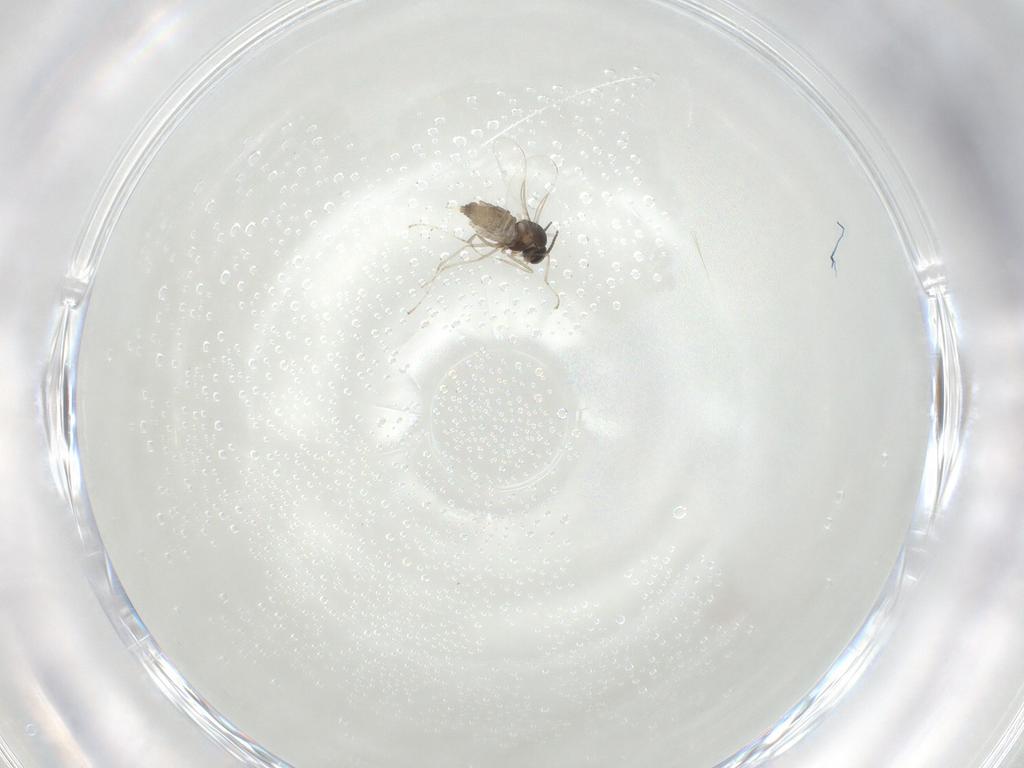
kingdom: Animalia
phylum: Arthropoda
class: Insecta
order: Diptera
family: Cecidomyiidae
